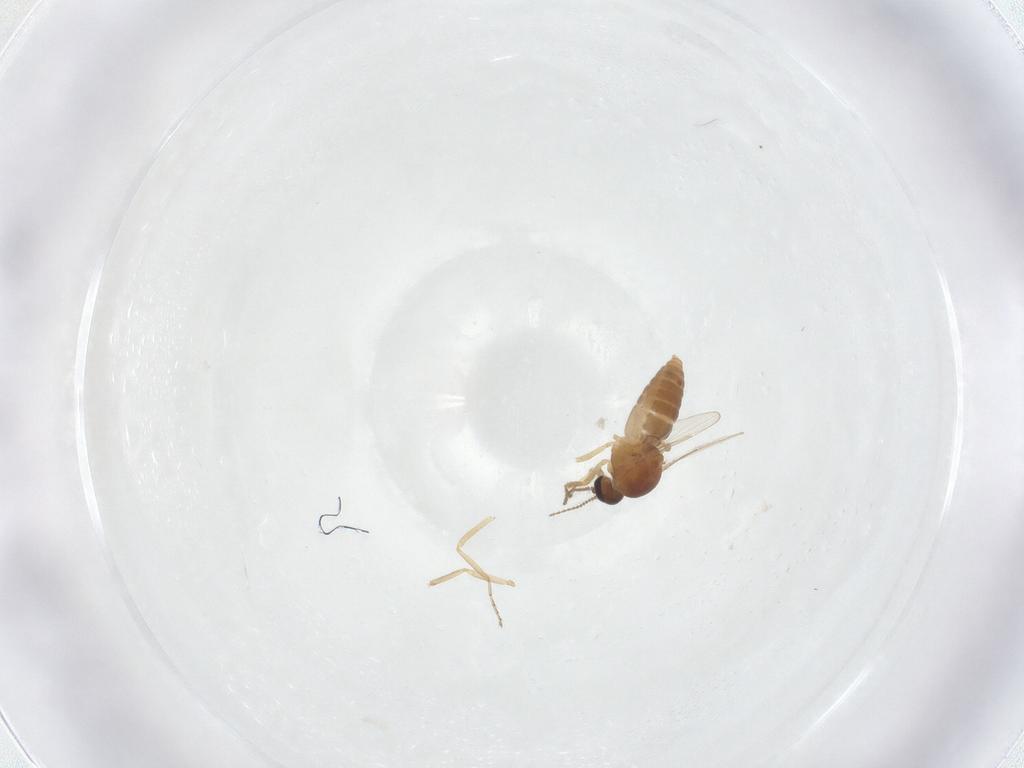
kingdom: Animalia
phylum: Arthropoda
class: Insecta
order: Diptera
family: Ceratopogonidae
